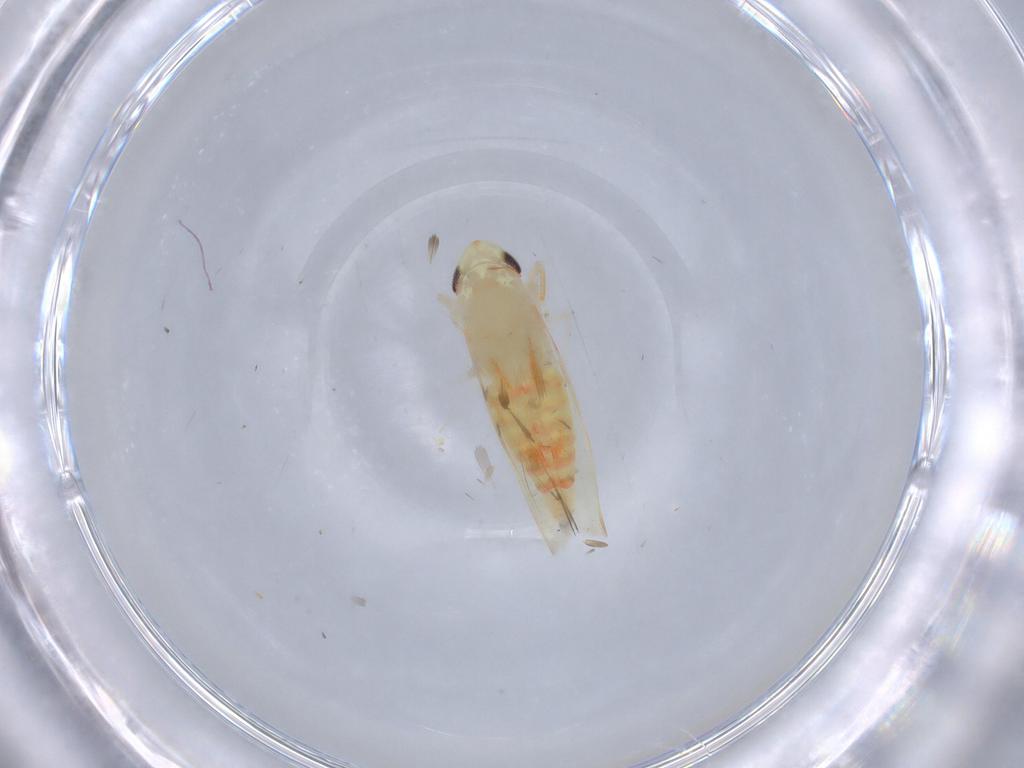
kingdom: Animalia
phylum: Arthropoda
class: Insecta
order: Hemiptera
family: Cicadellidae
